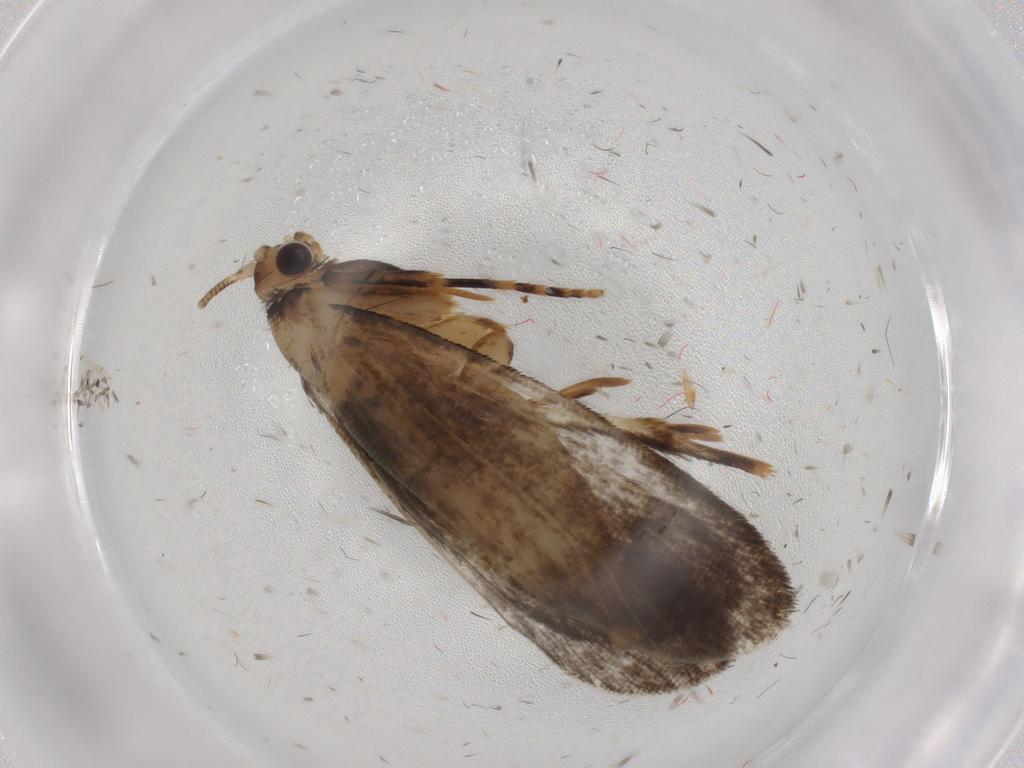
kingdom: Animalia
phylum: Arthropoda
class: Insecta
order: Lepidoptera
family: Tineidae
